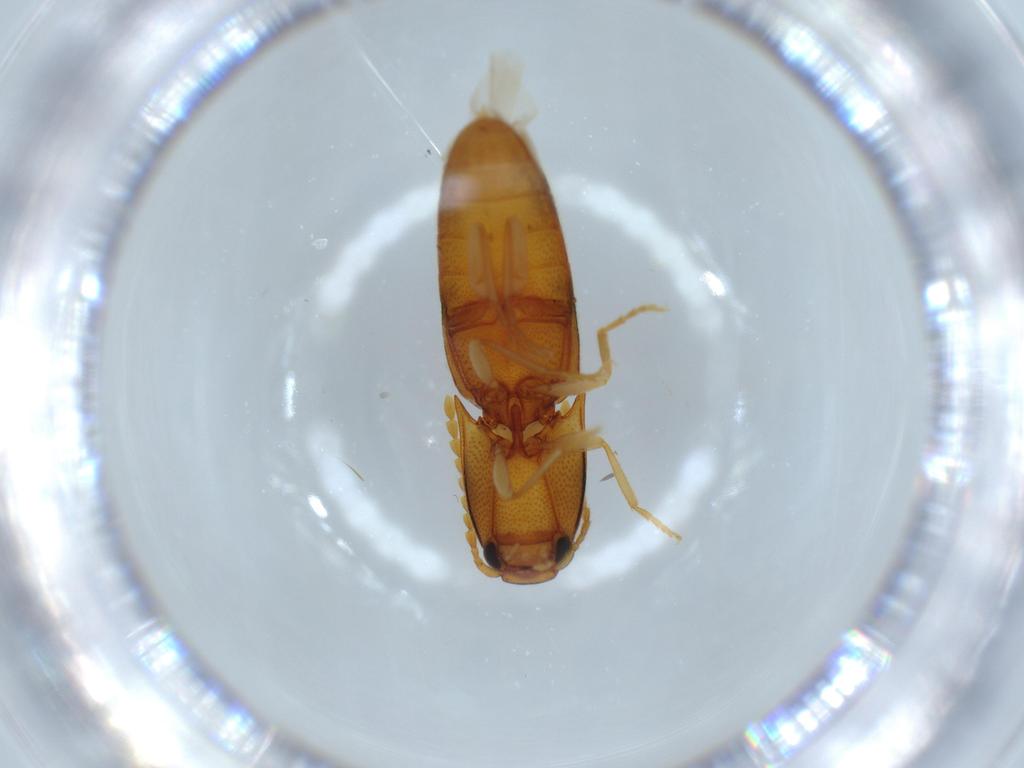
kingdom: Animalia
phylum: Arthropoda
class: Insecta
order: Coleoptera
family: Elateridae
